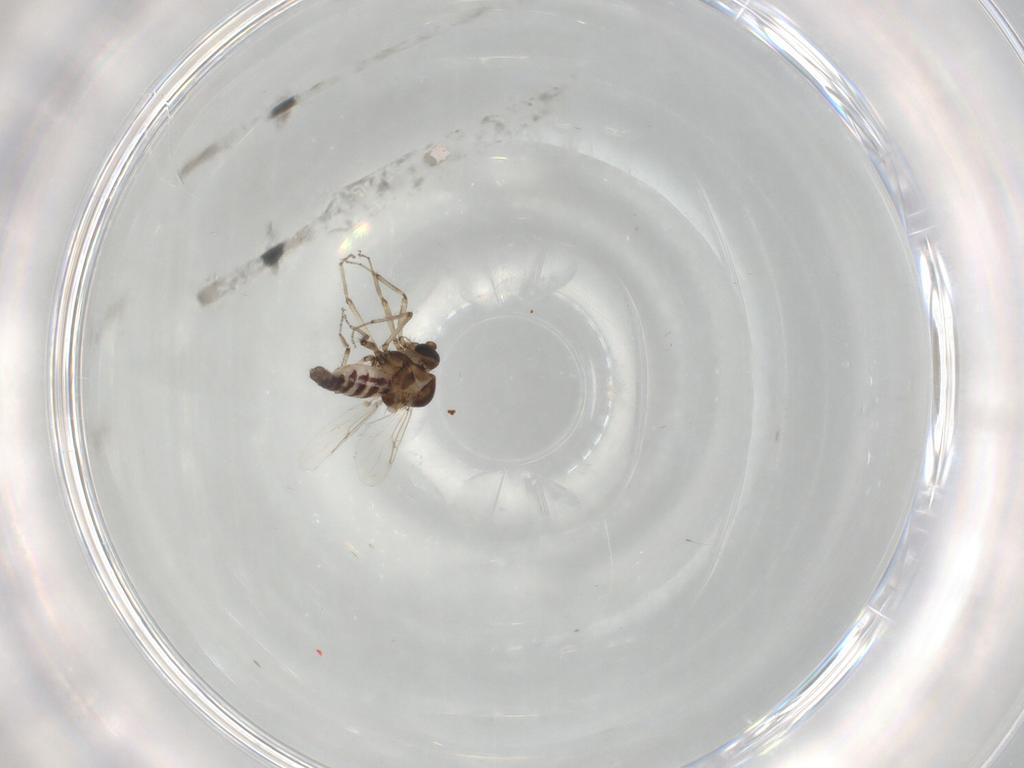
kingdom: Animalia
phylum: Arthropoda
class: Insecta
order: Diptera
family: Ceratopogonidae
